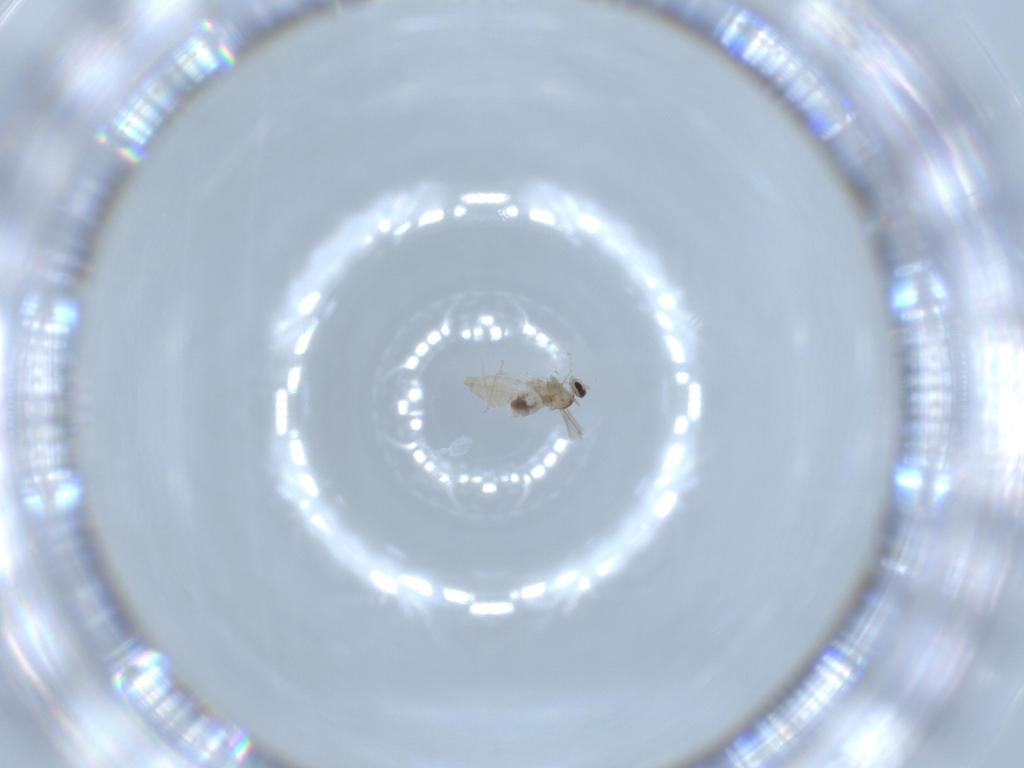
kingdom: Animalia
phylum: Arthropoda
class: Insecta
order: Diptera
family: Cecidomyiidae
